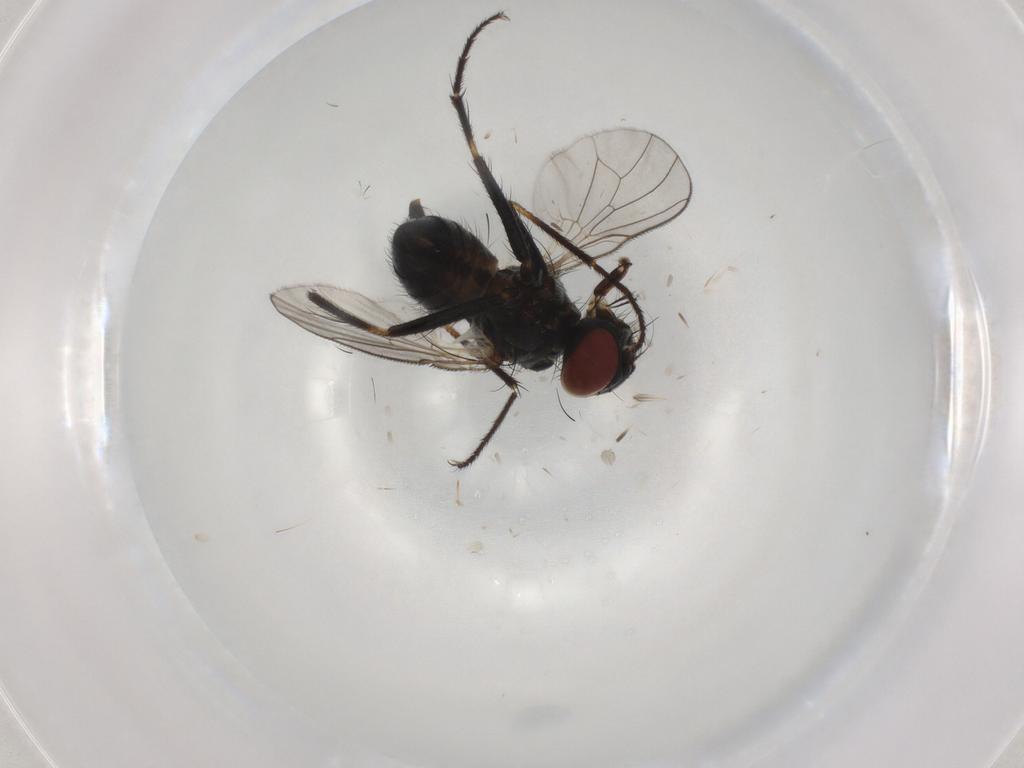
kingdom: Animalia
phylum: Arthropoda
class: Insecta
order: Diptera
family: Muscidae
